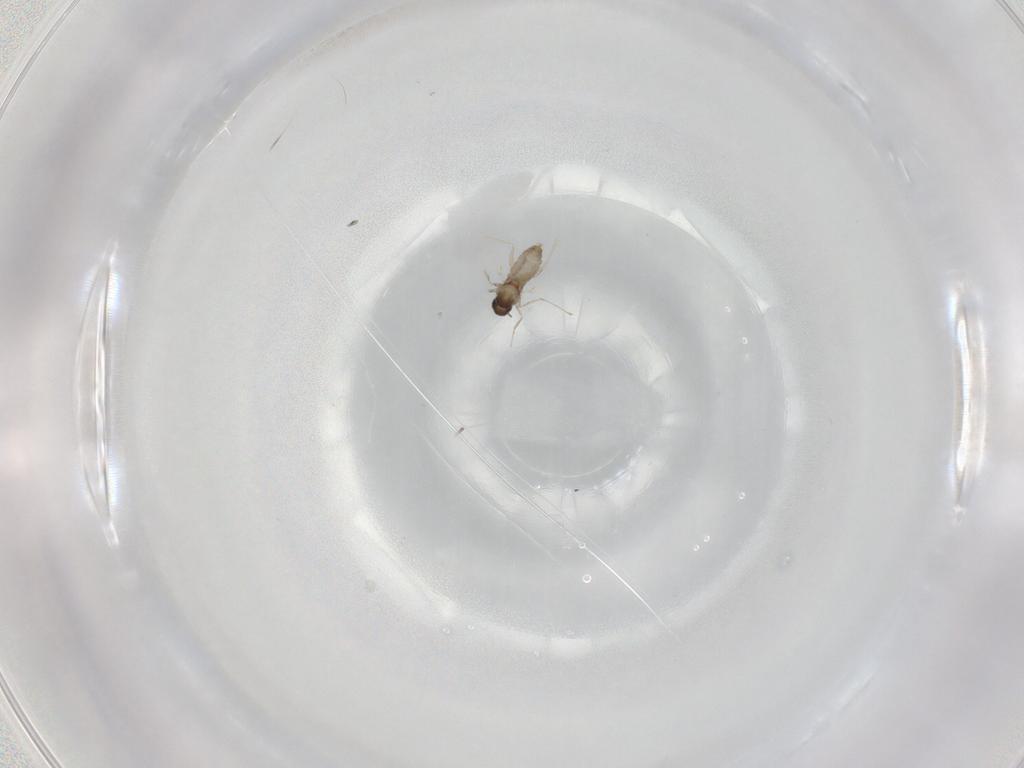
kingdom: Animalia
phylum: Arthropoda
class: Insecta
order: Diptera
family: Cecidomyiidae
